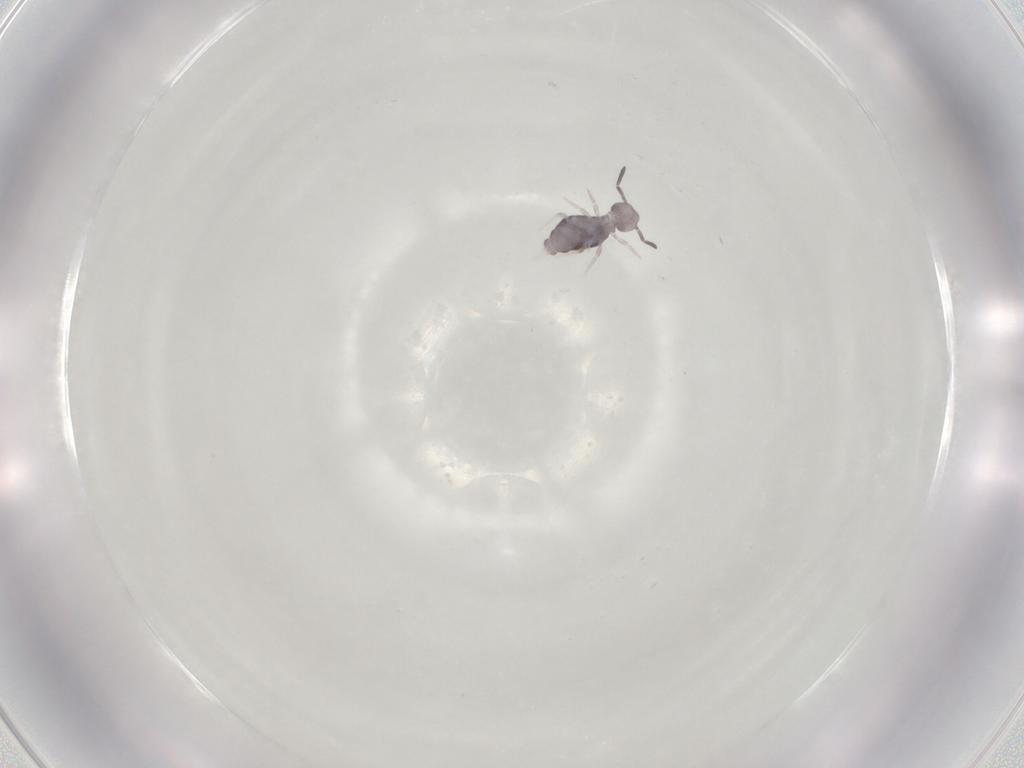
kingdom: Animalia
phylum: Arthropoda
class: Collembola
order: Symphypleona
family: Katiannidae
